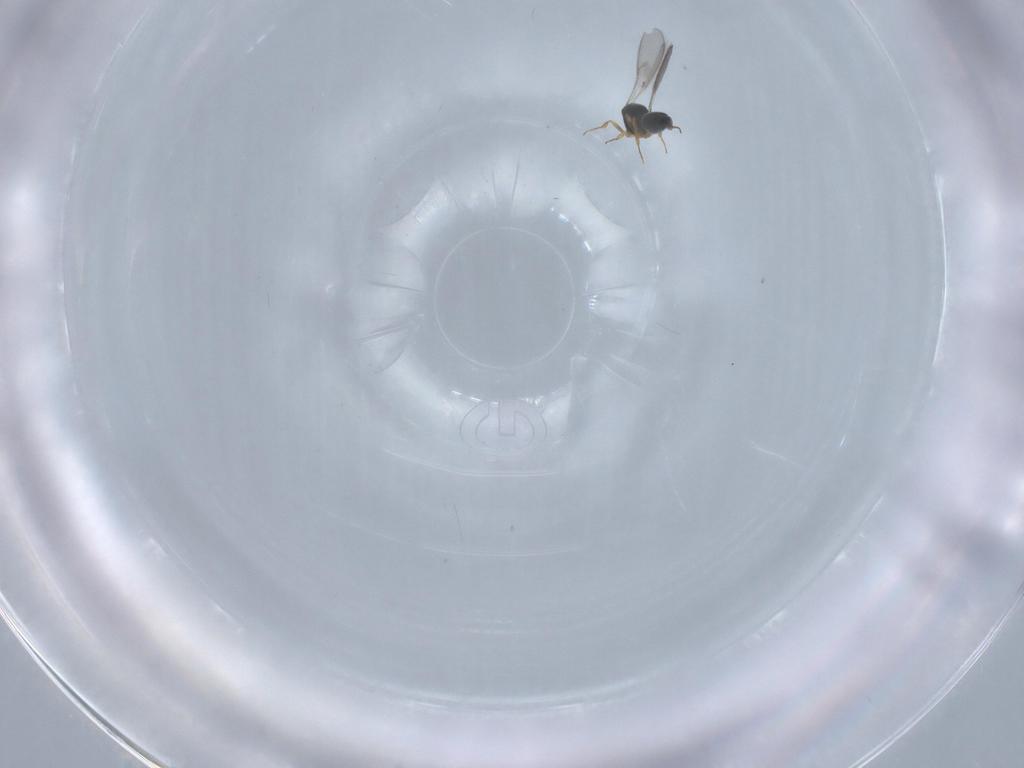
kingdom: Animalia
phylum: Arthropoda
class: Insecta
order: Hymenoptera
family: Scelionidae
